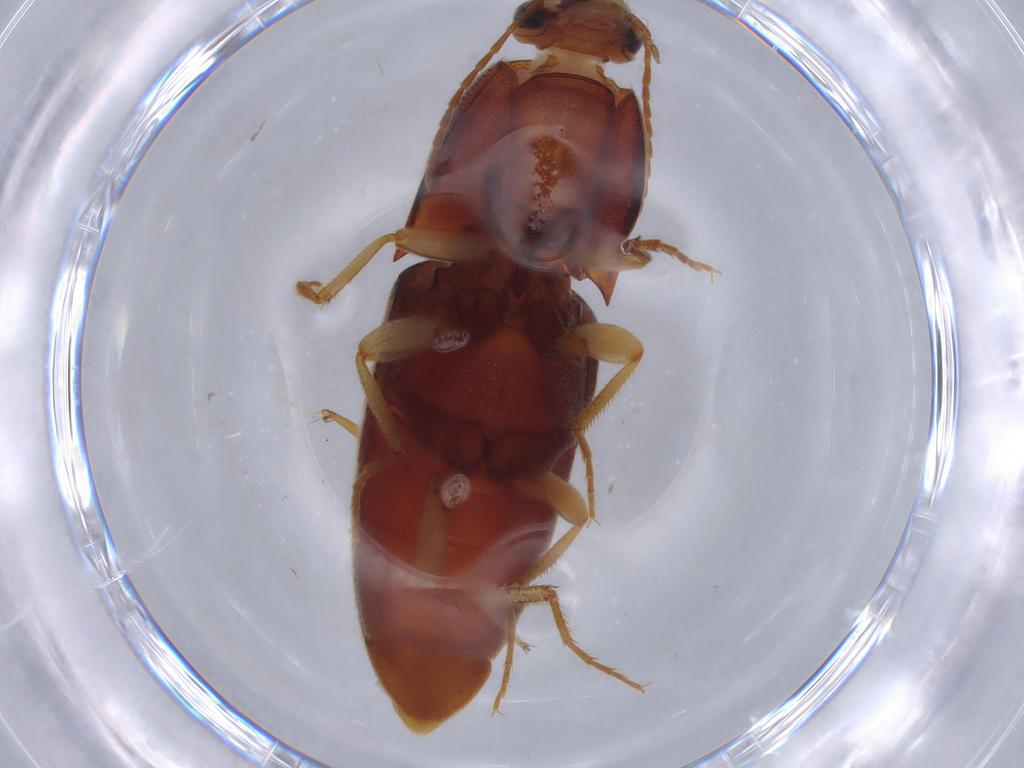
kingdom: Animalia
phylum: Arthropoda
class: Insecta
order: Coleoptera
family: Elateridae
